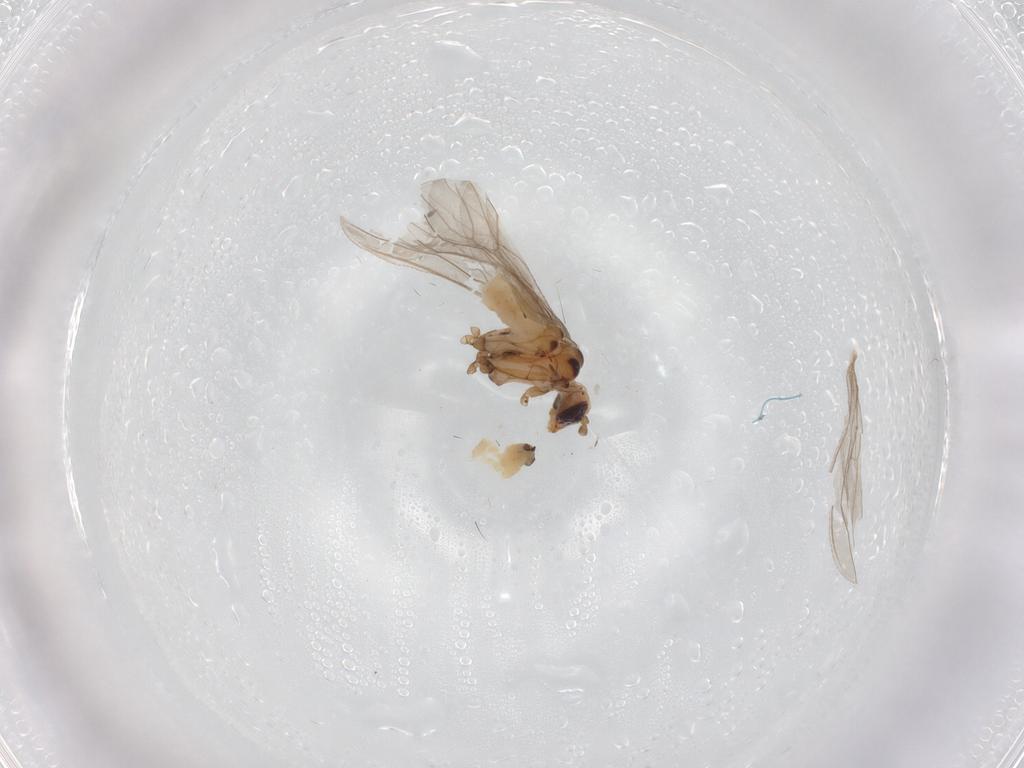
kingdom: Animalia
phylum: Arthropoda
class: Insecta
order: Neuroptera
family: Coniopterygidae
